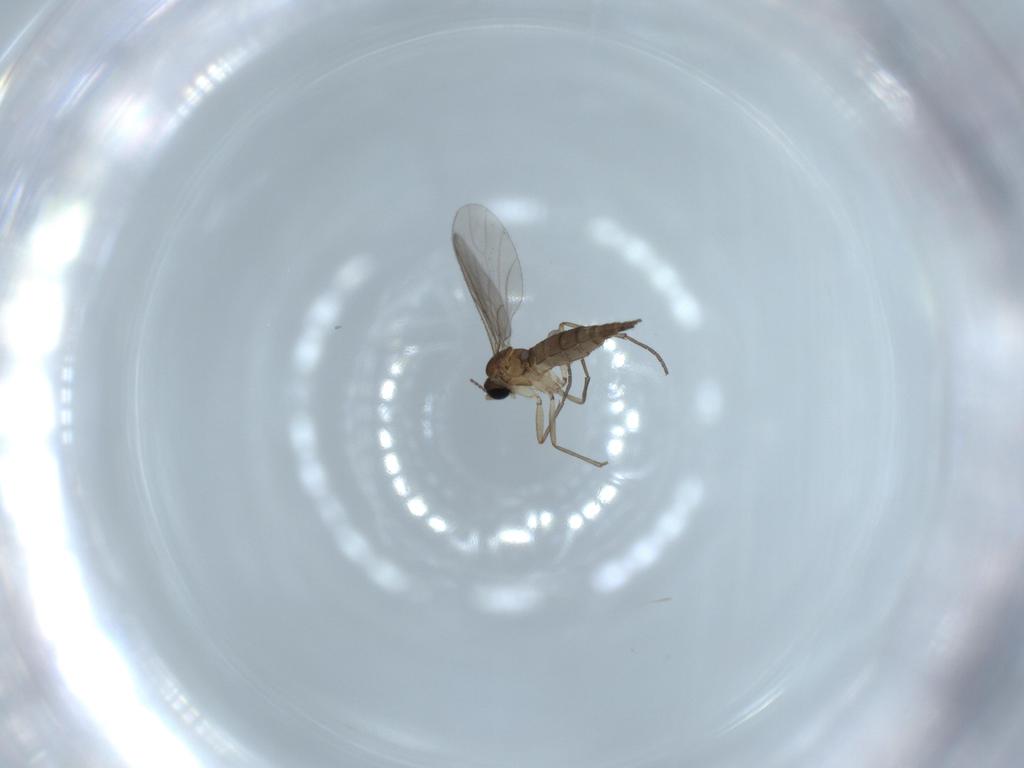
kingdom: Animalia
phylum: Arthropoda
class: Insecta
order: Diptera
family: Sciaridae
